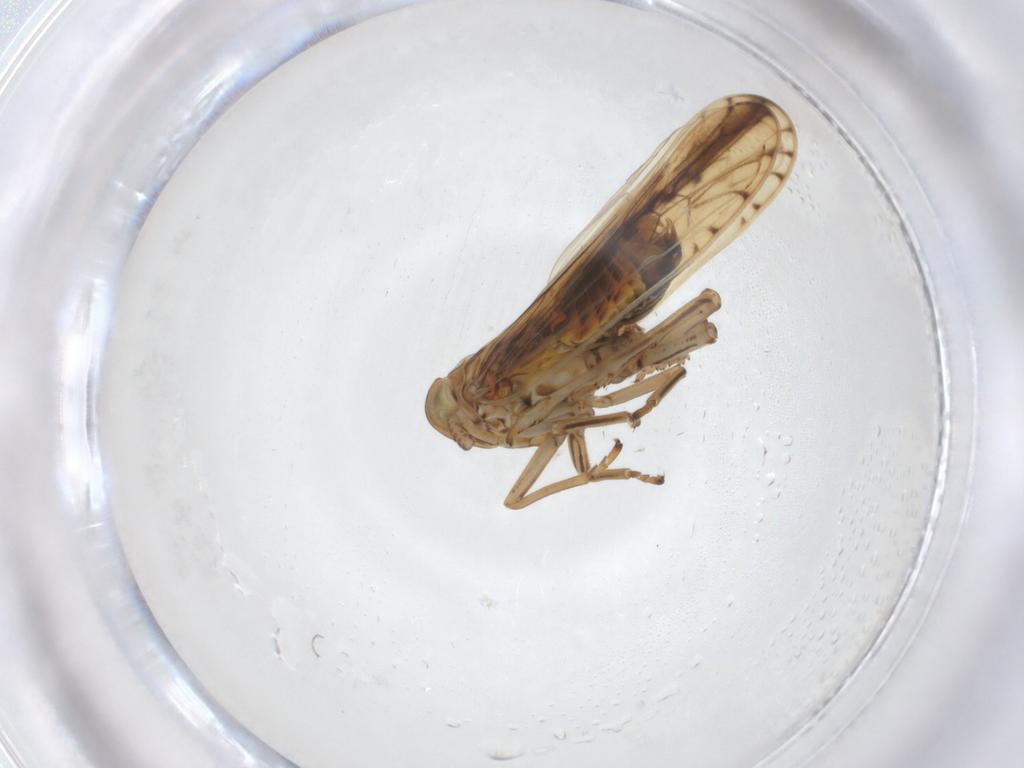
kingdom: Animalia
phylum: Arthropoda
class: Insecta
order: Hemiptera
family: Delphacidae
